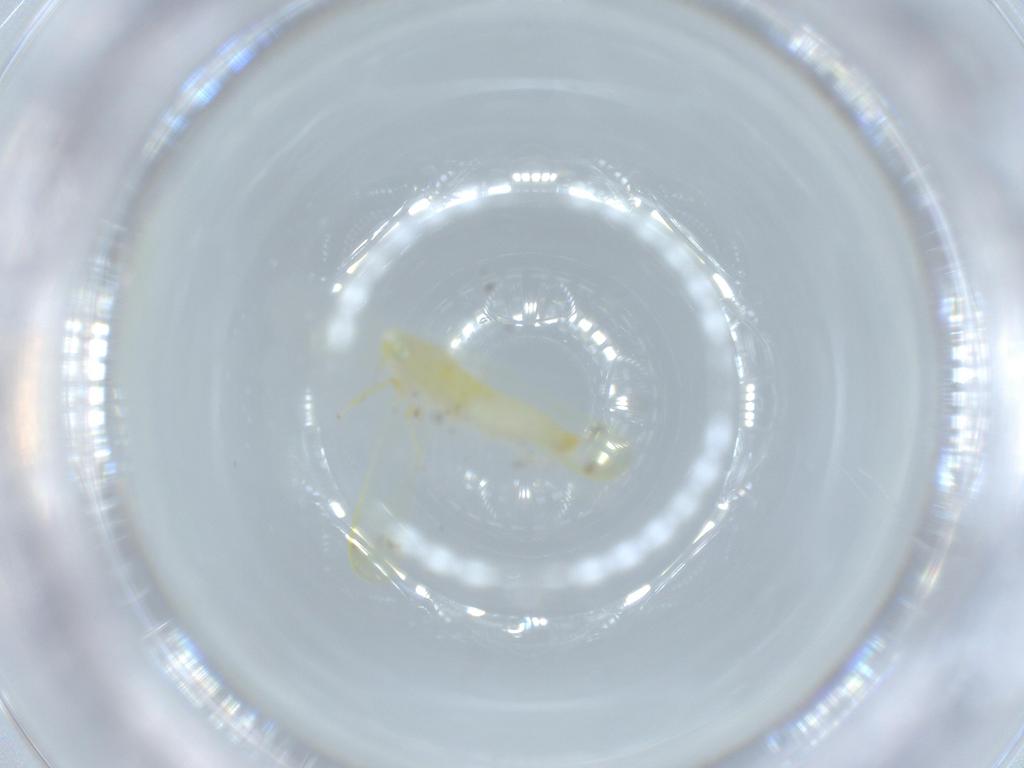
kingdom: Animalia
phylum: Arthropoda
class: Insecta
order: Hemiptera
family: Cicadellidae
